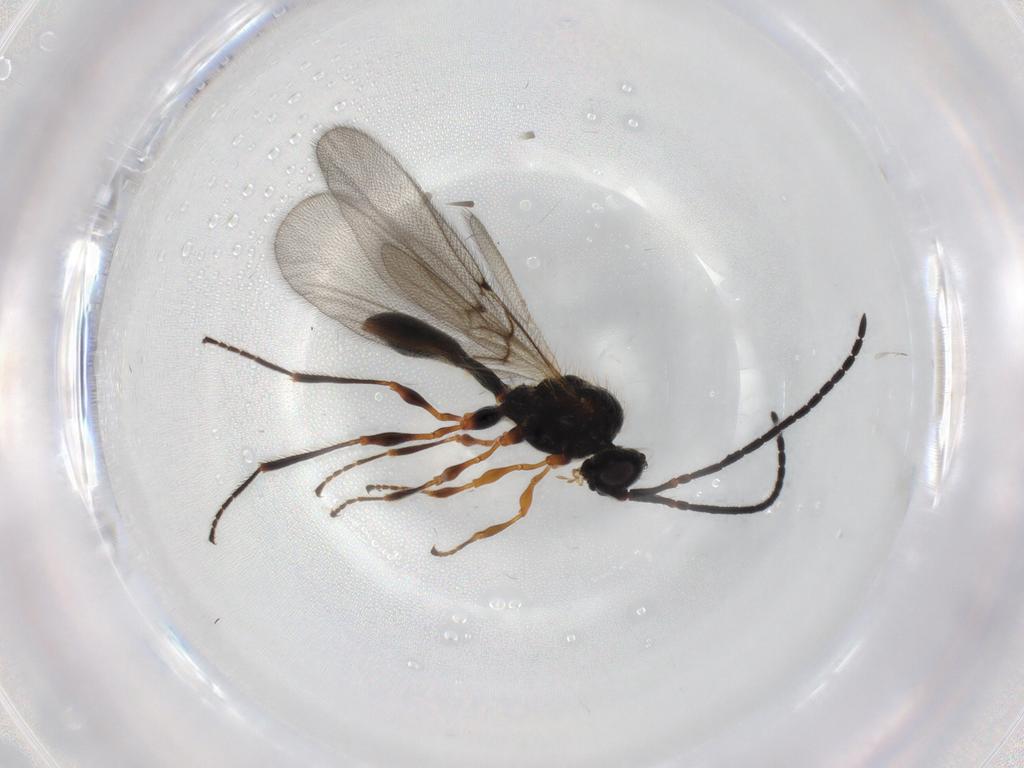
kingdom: Animalia
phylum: Arthropoda
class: Insecta
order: Hymenoptera
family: Diapriidae
